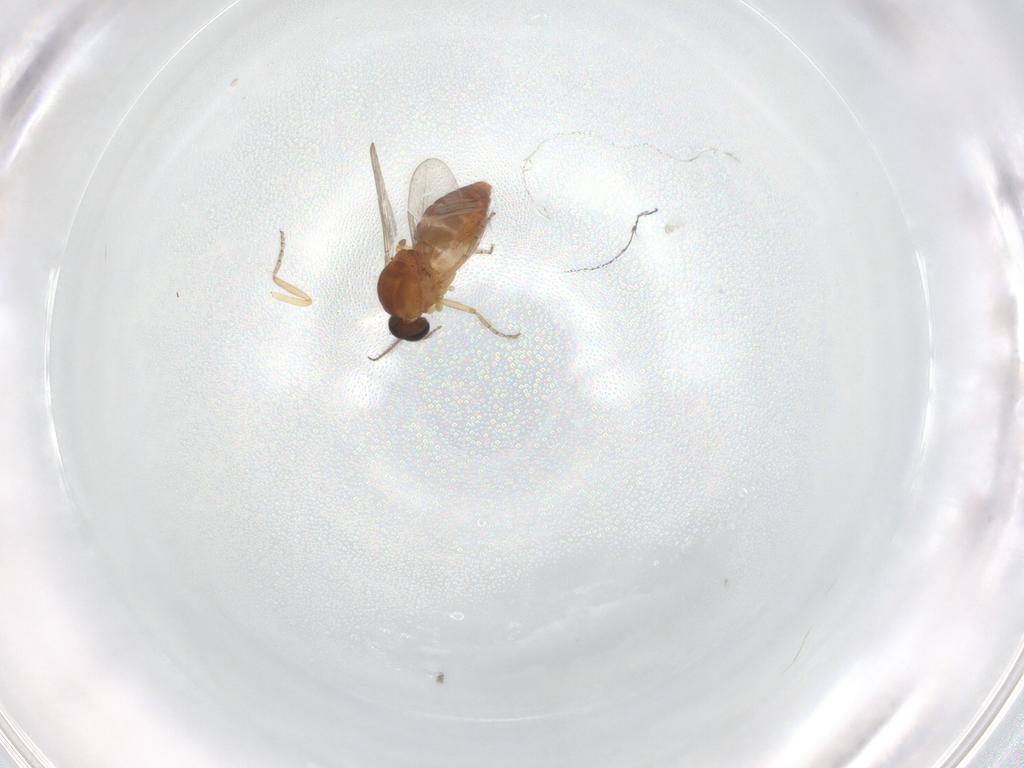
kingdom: Animalia
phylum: Arthropoda
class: Insecta
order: Diptera
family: Ceratopogonidae
